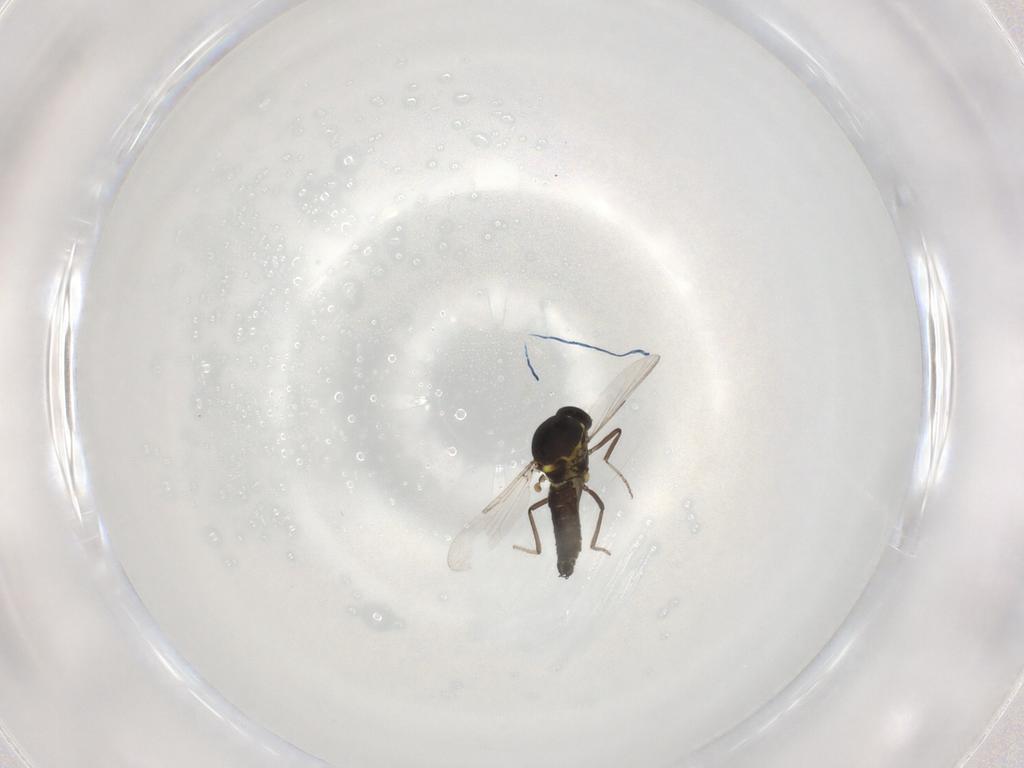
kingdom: Animalia
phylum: Arthropoda
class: Insecta
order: Diptera
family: Ceratopogonidae
